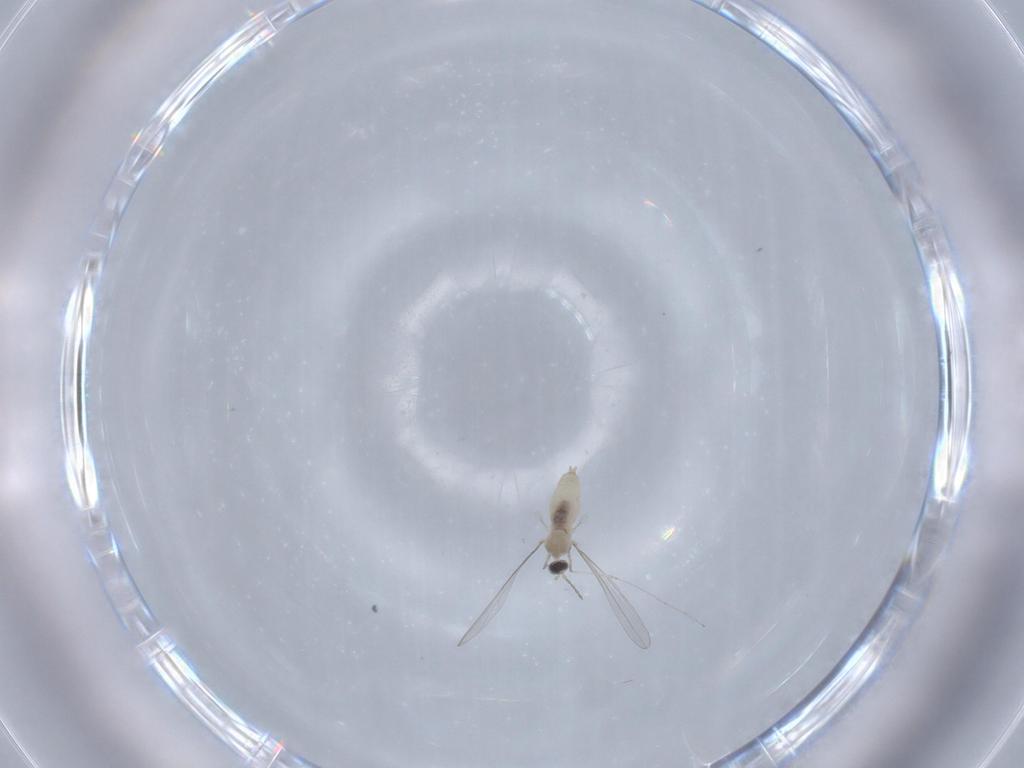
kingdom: Animalia
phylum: Arthropoda
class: Insecta
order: Diptera
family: Cecidomyiidae
